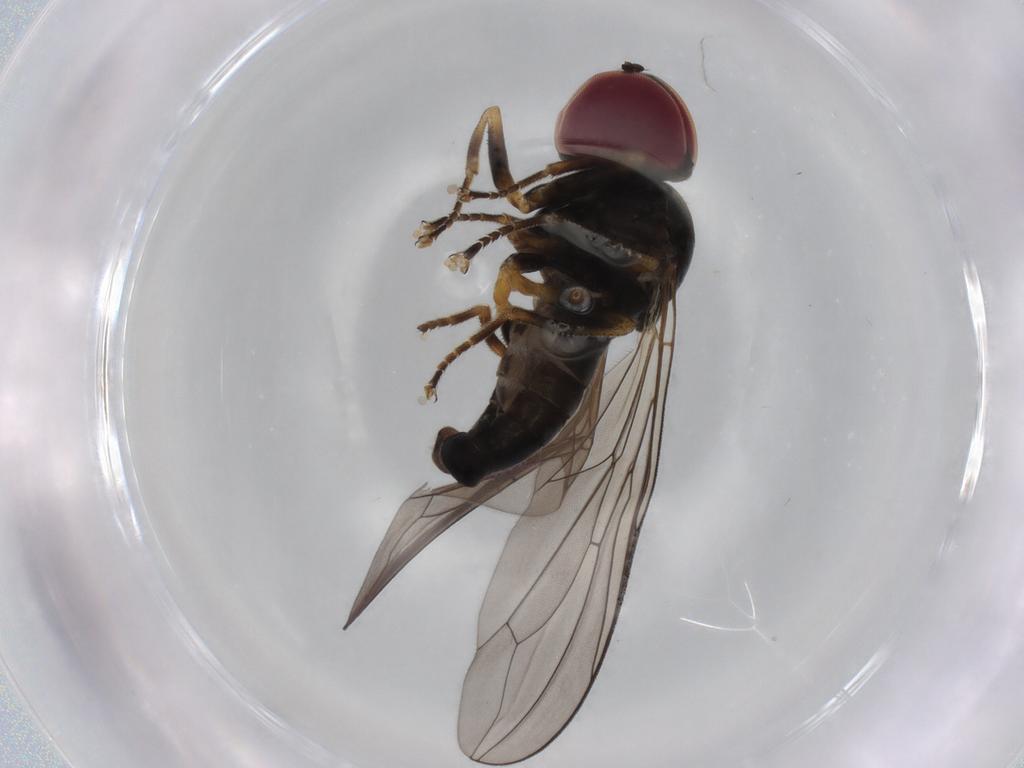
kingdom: Animalia
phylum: Arthropoda
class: Insecta
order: Diptera
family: Pipunculidae
